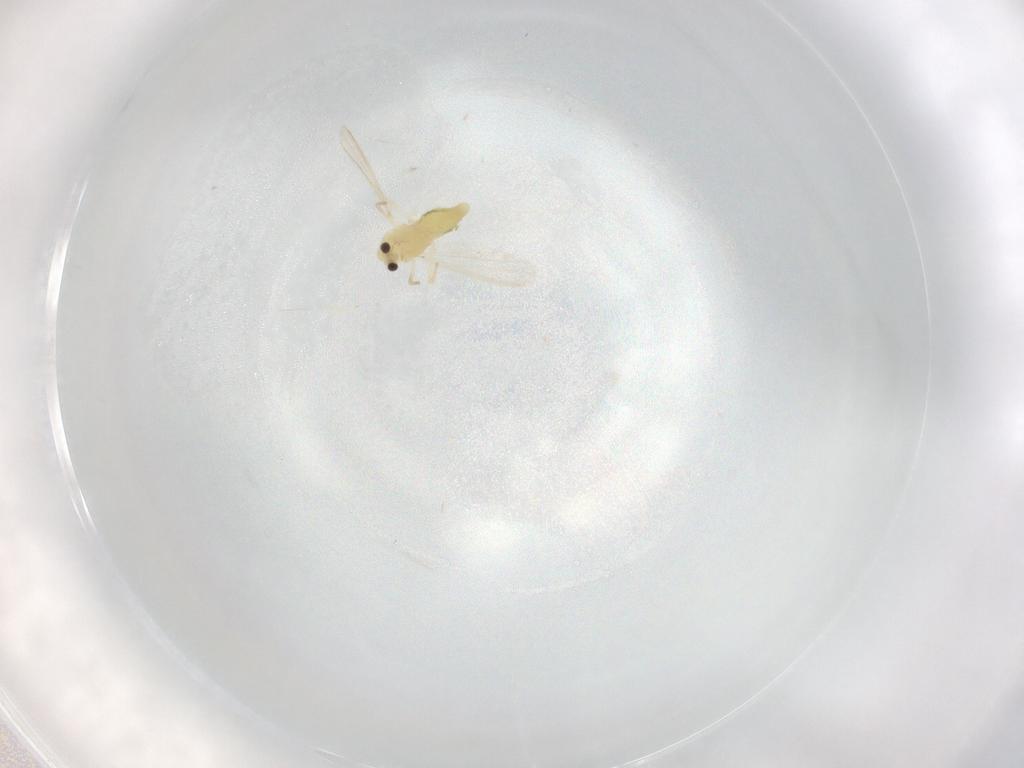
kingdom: Animalia
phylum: Arthropoda
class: Insecta
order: Diptera
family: Chironomidae
